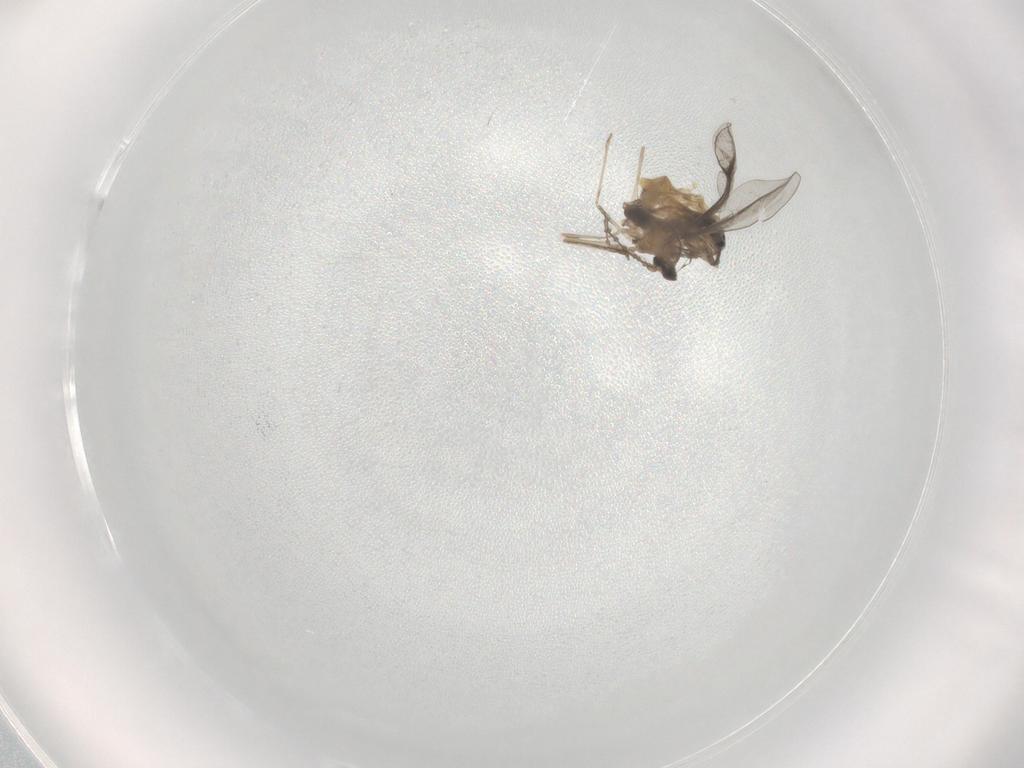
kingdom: Animalia
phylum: Arthropoda
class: Insecta
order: Diptera
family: Cecidomyiidae
